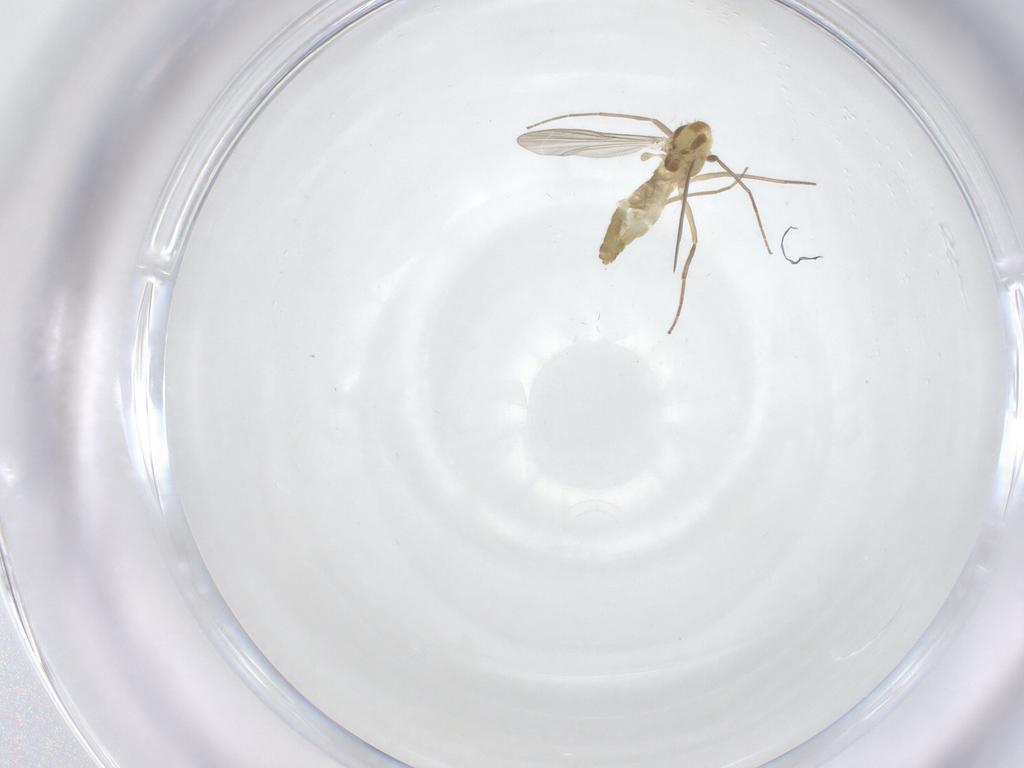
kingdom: Animalia
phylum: Arthropoda
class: Insecta
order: Diptera
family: Chironomidae
